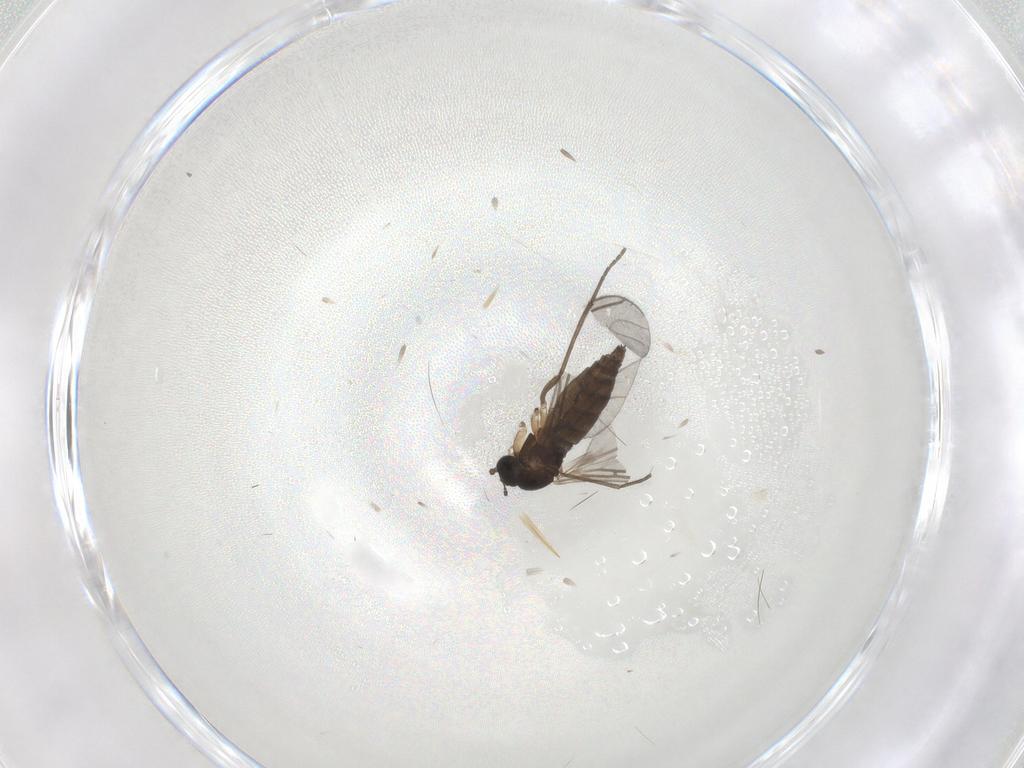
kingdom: Animalia
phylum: Arthropoda
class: Insecta
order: Diptera
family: Sciaridae
